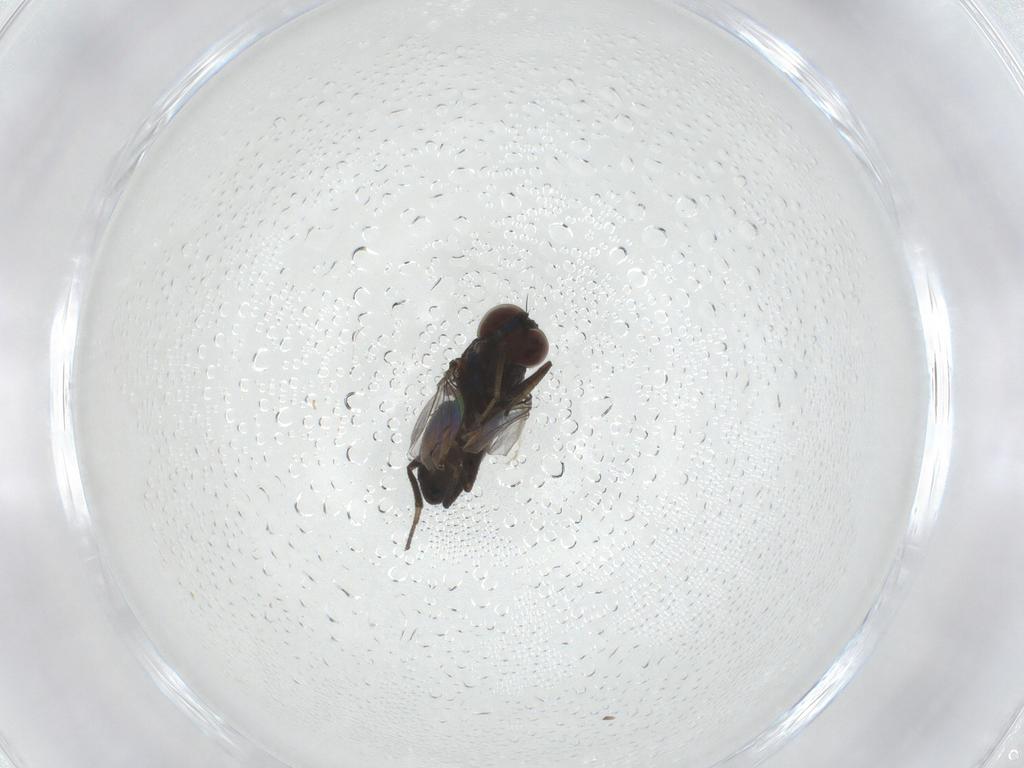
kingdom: Animalia
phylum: Arthropoda
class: Insecta
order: Diptera
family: Dolichopodidae
